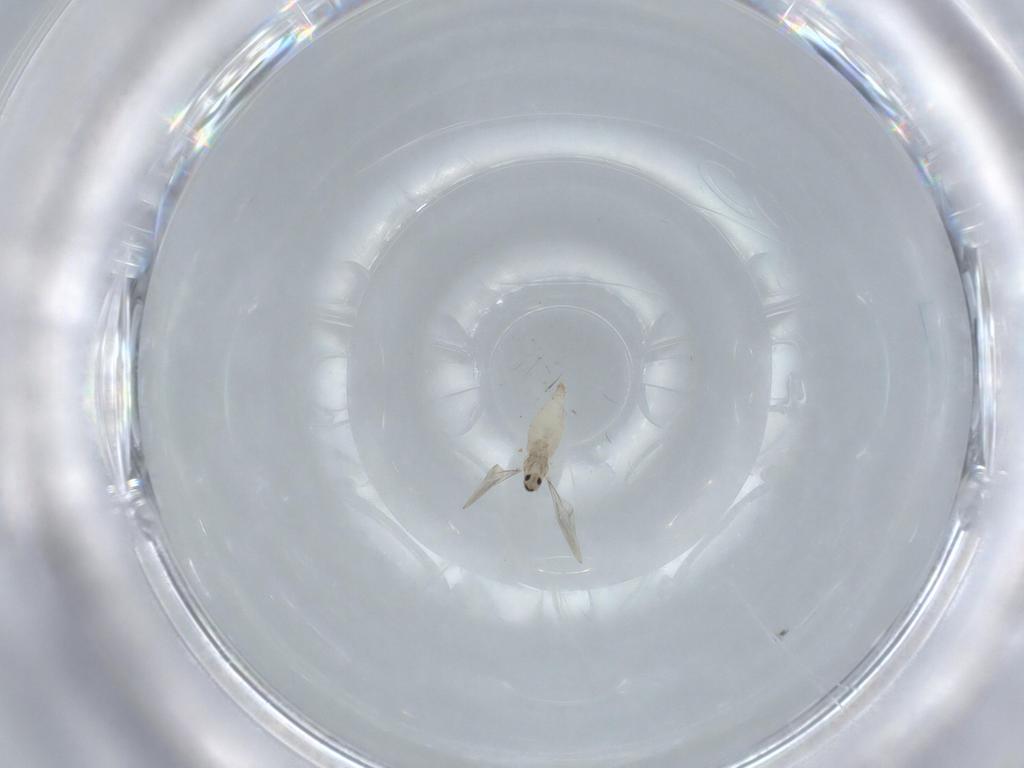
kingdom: Animalia
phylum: Arthropoda
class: Insecta
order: Diptera
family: Cecidomyiidae
